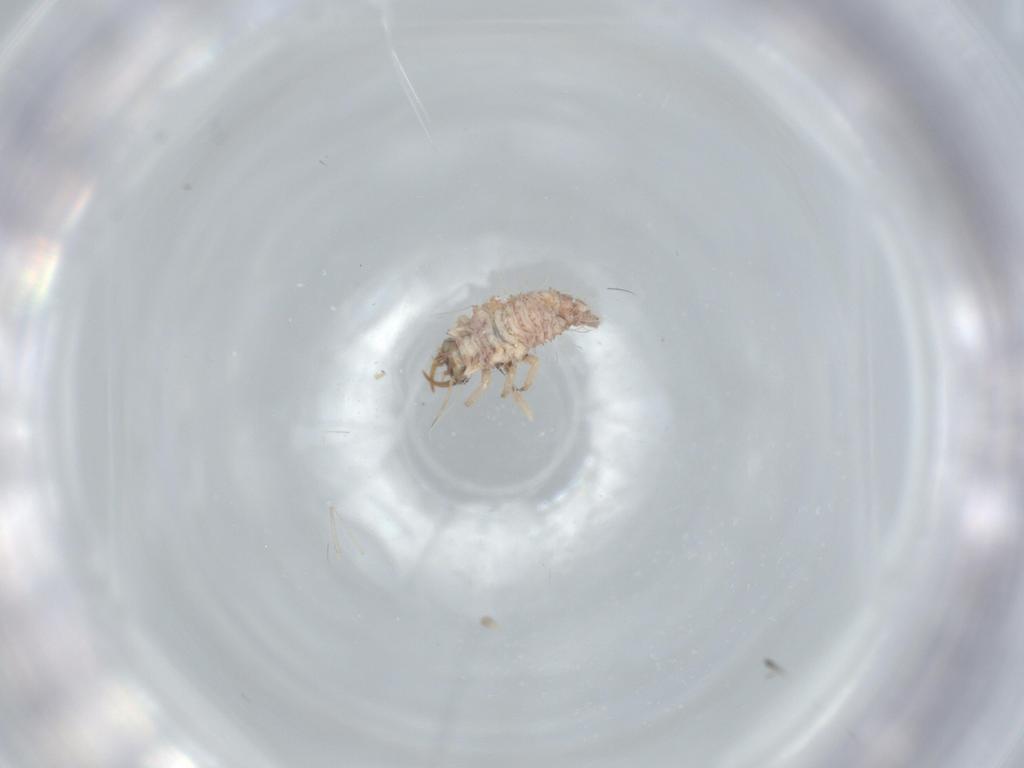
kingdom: Animalia
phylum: Arthropoda
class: Insecta
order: Neuroptera
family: Chrysopidae
